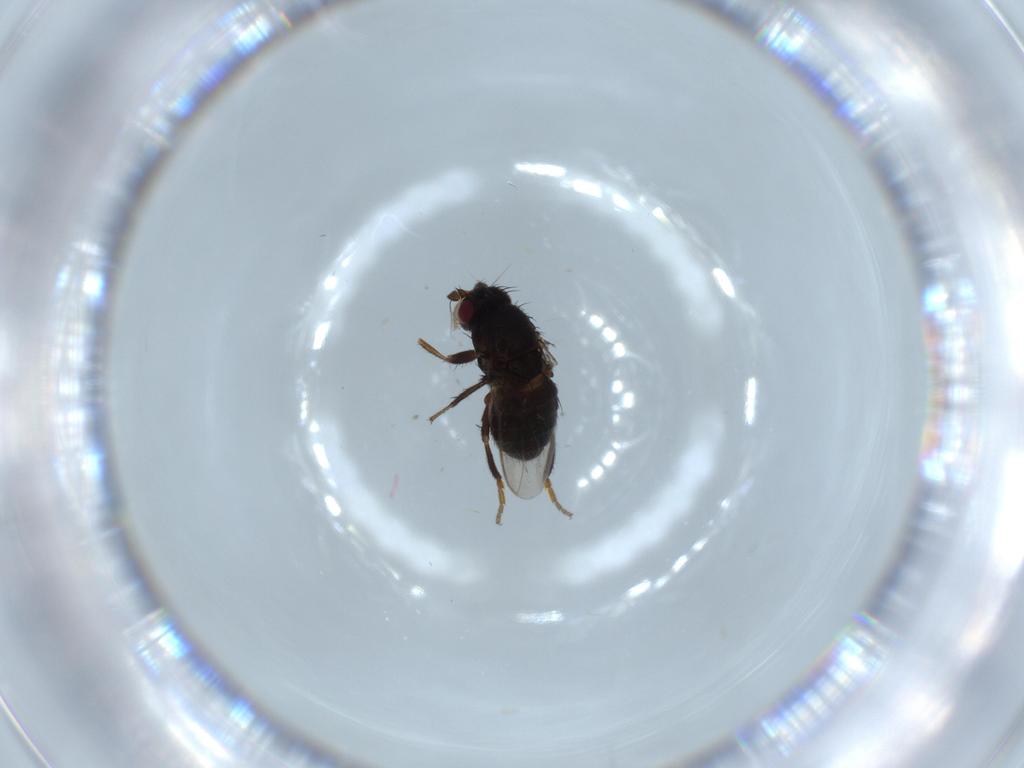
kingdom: Animalia
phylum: Arthropoda
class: Insecta
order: Diptera
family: Sphaeroceridae
